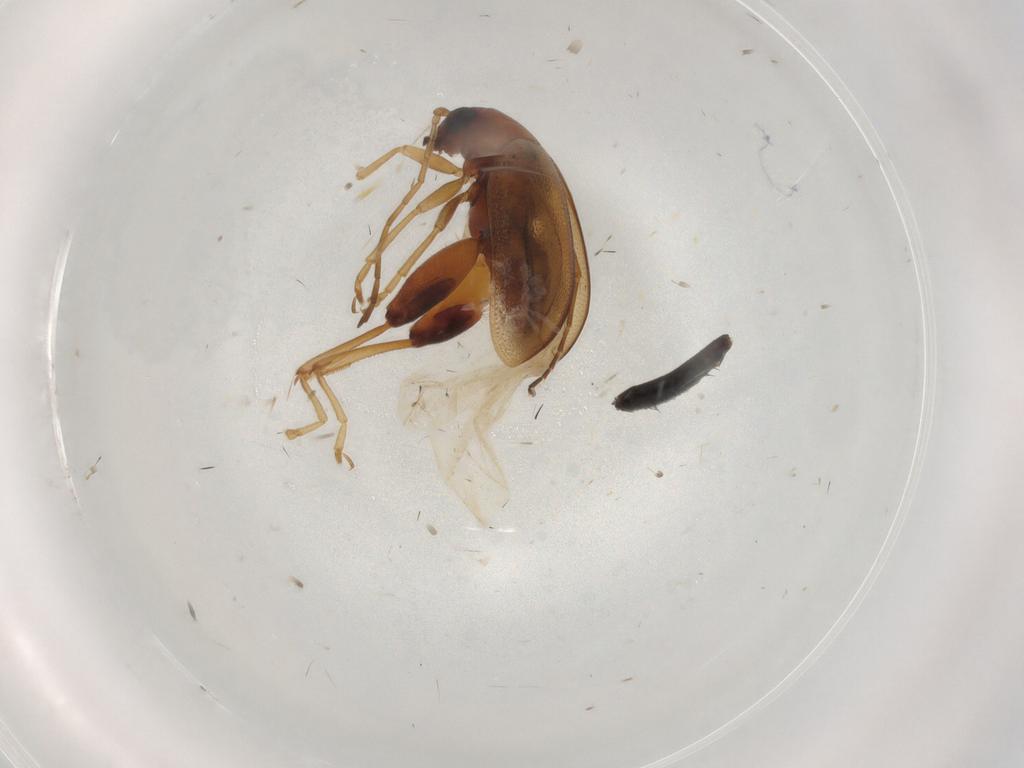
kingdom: Animalia
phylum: Arthropoda
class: Insecta
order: Coleoptera
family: Chrysomelidae
